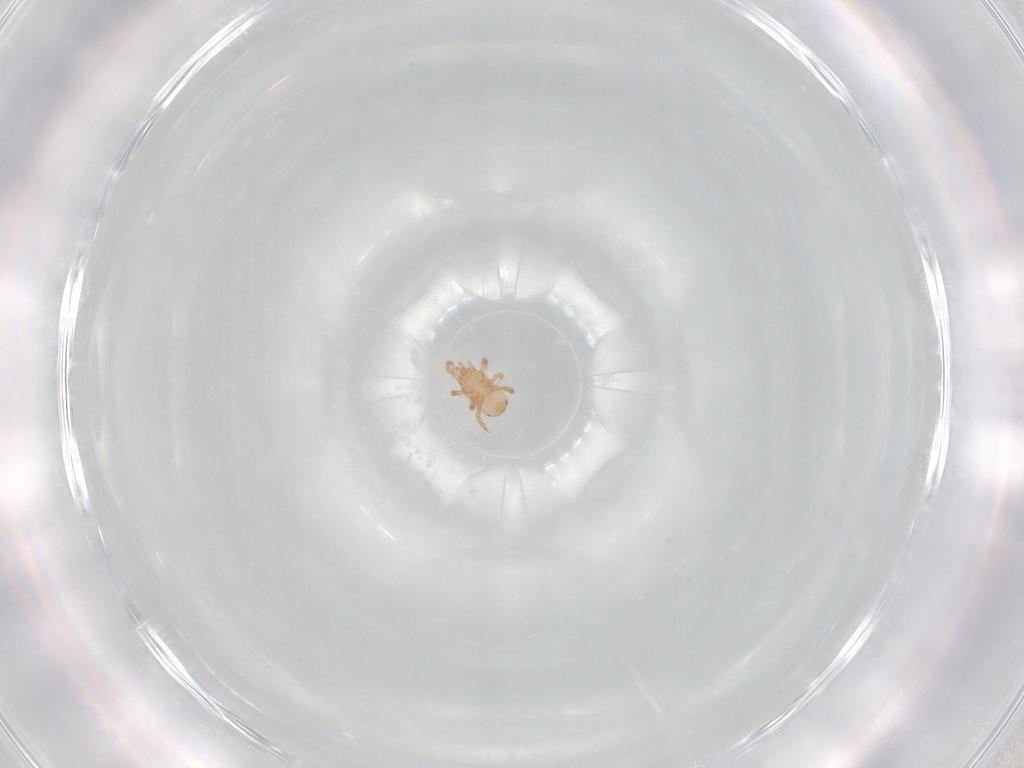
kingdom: Animalia
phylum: Arthropoda
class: Arachnida
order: Mesostigmata
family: Ascidae
